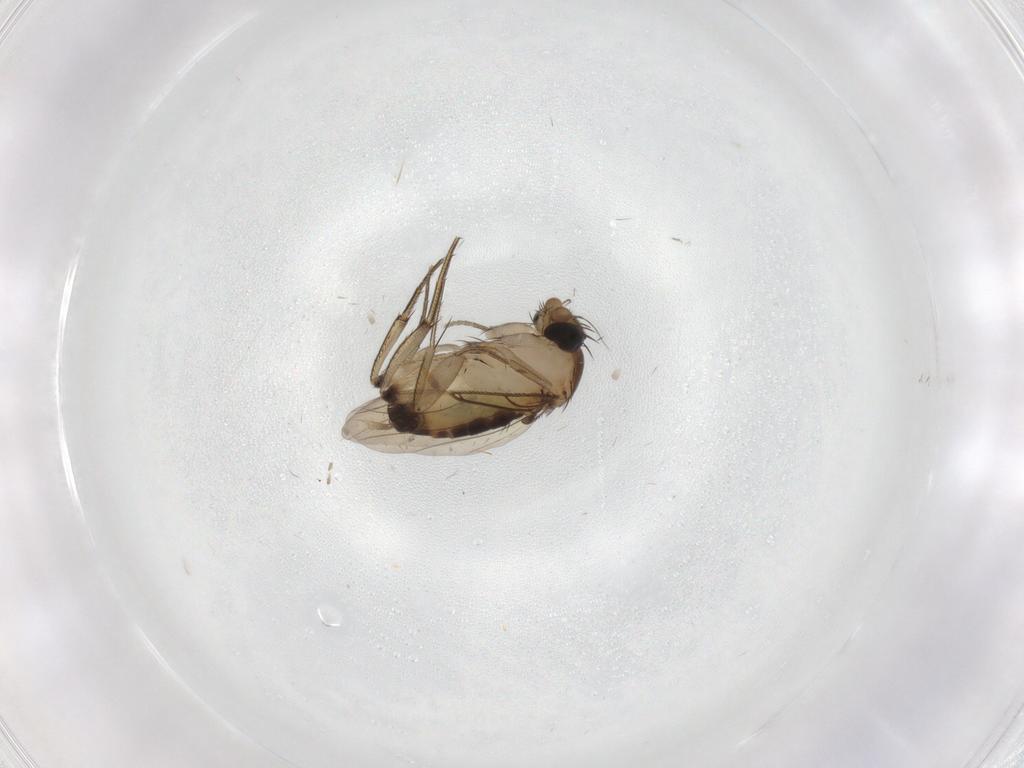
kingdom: Animalia
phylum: Arthropoda
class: Insecta
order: Diptera
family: Phoridae
